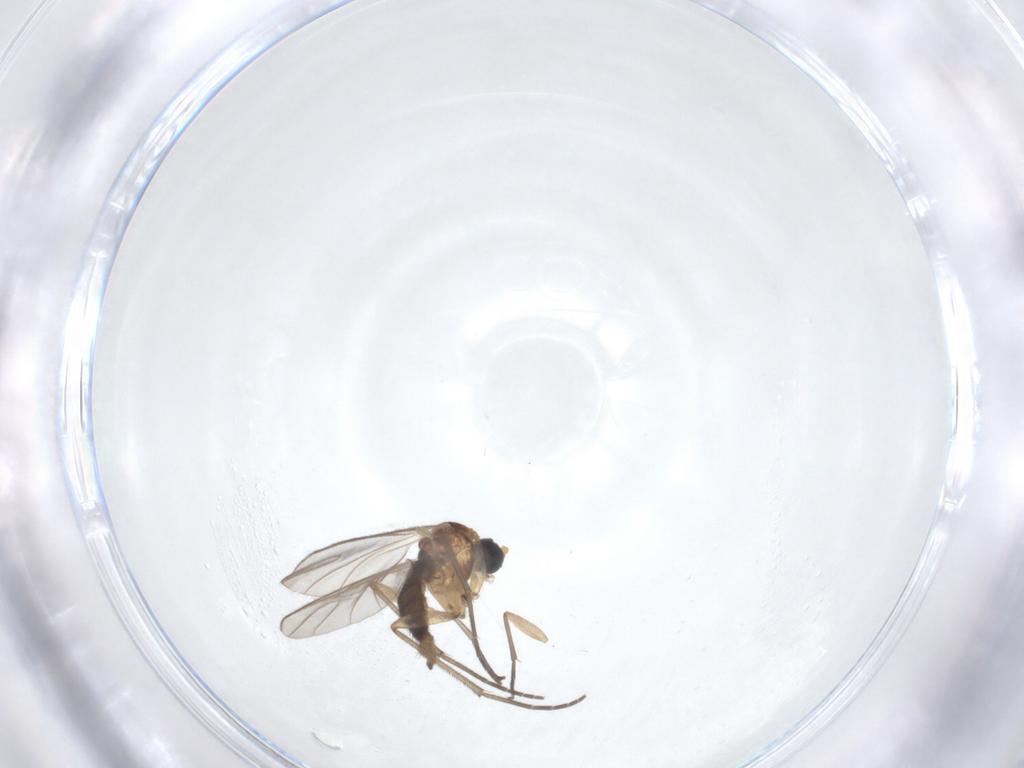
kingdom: Animalia
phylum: Arthropoda
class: Insecta
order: Diptera
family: Sciaridae
